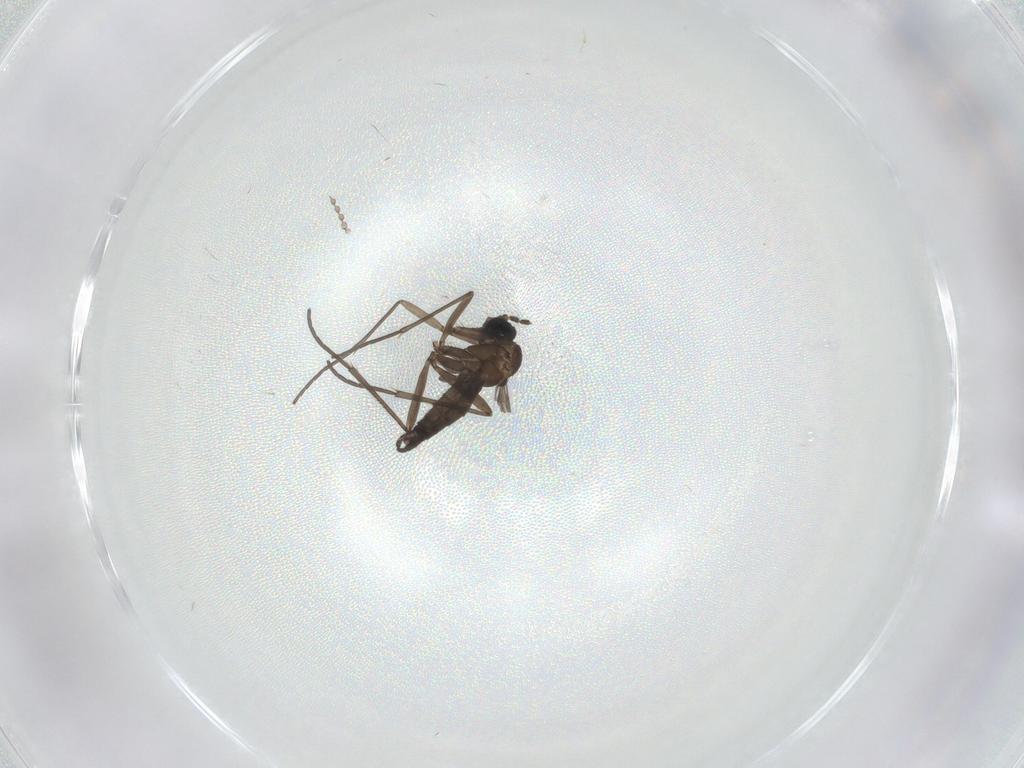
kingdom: Animalia
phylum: Arthropoda
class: Insecta
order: Diptera
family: Sciaridae
